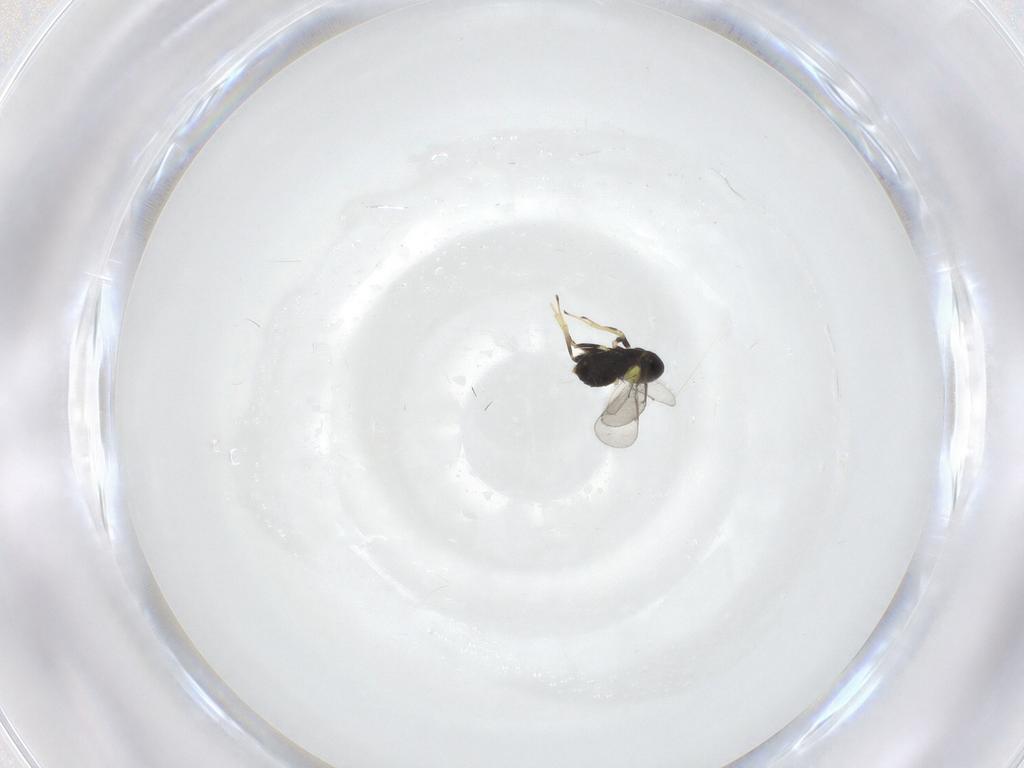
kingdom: Animalia
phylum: Arthropoda
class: Insecta
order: Hymenoptera
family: Aphelinidae
